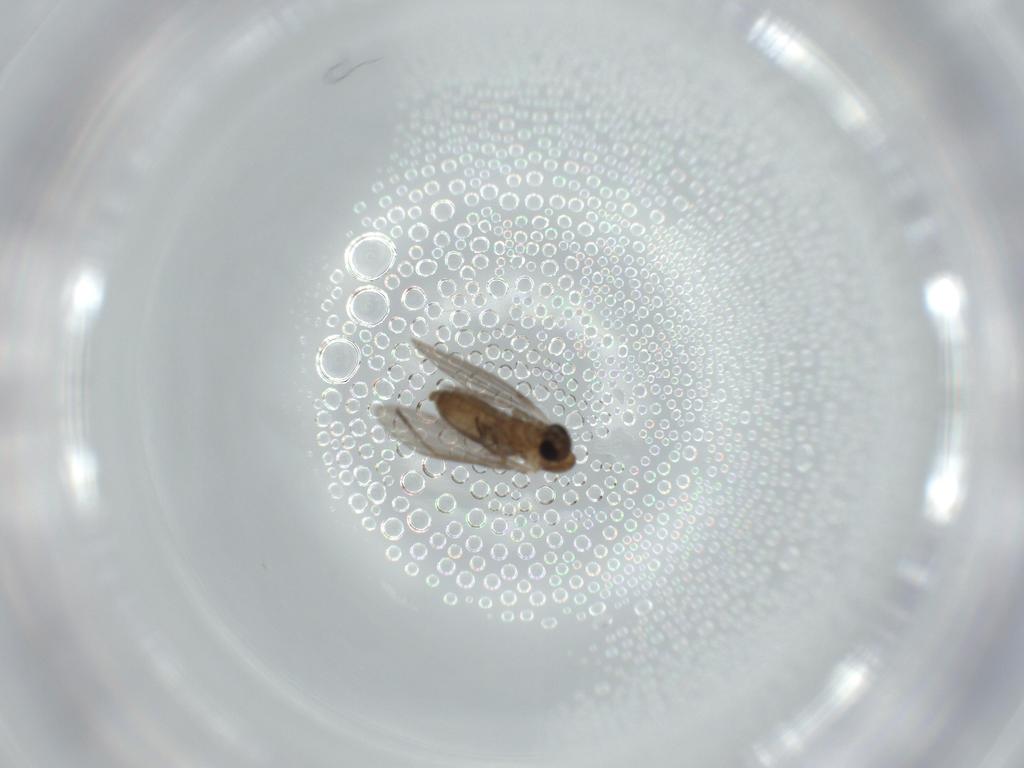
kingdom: Animalia
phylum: Arthropoda
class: Insecta
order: Diptera
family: Psychodidae
